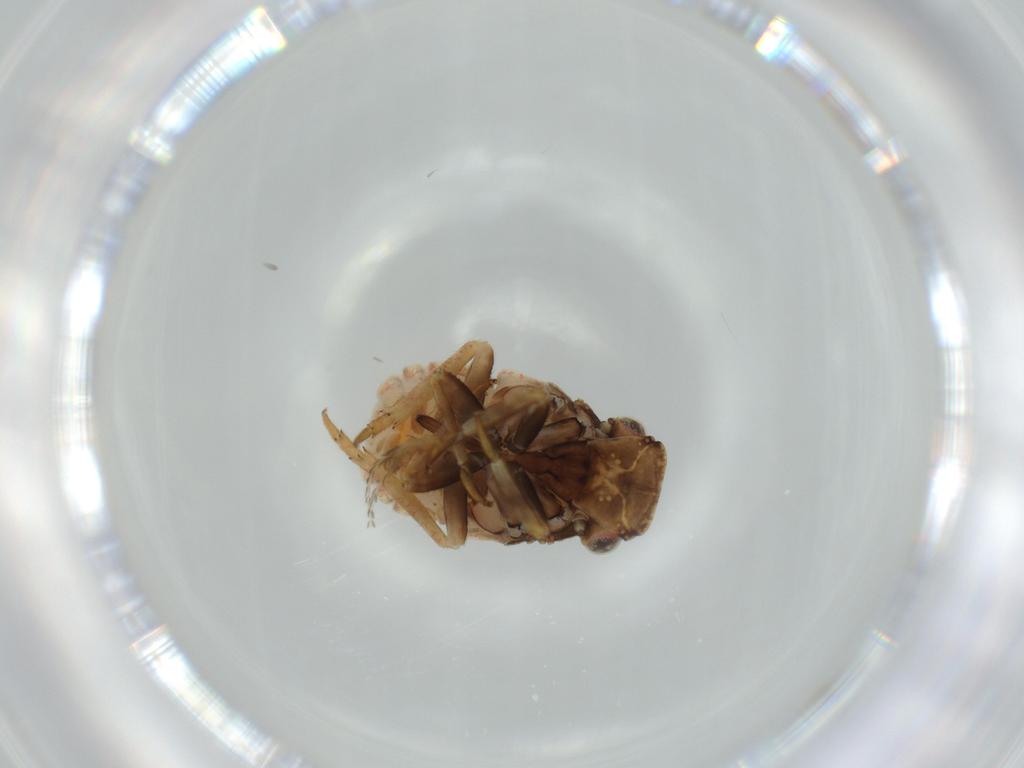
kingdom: Animalia
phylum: Arthropoda
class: Insecta
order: Hemiptera
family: Fulgoroidea_incertae_sedis
